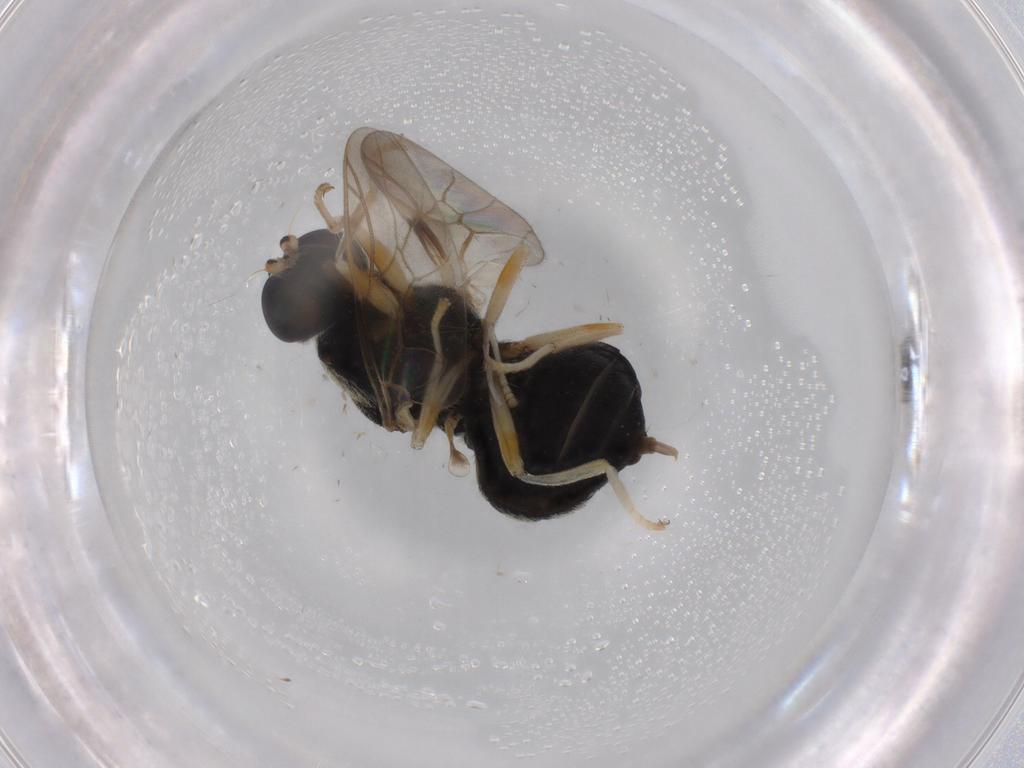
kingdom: Animalia
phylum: Arthropoda
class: Insecta
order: Diptera
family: Stratiomyidae
